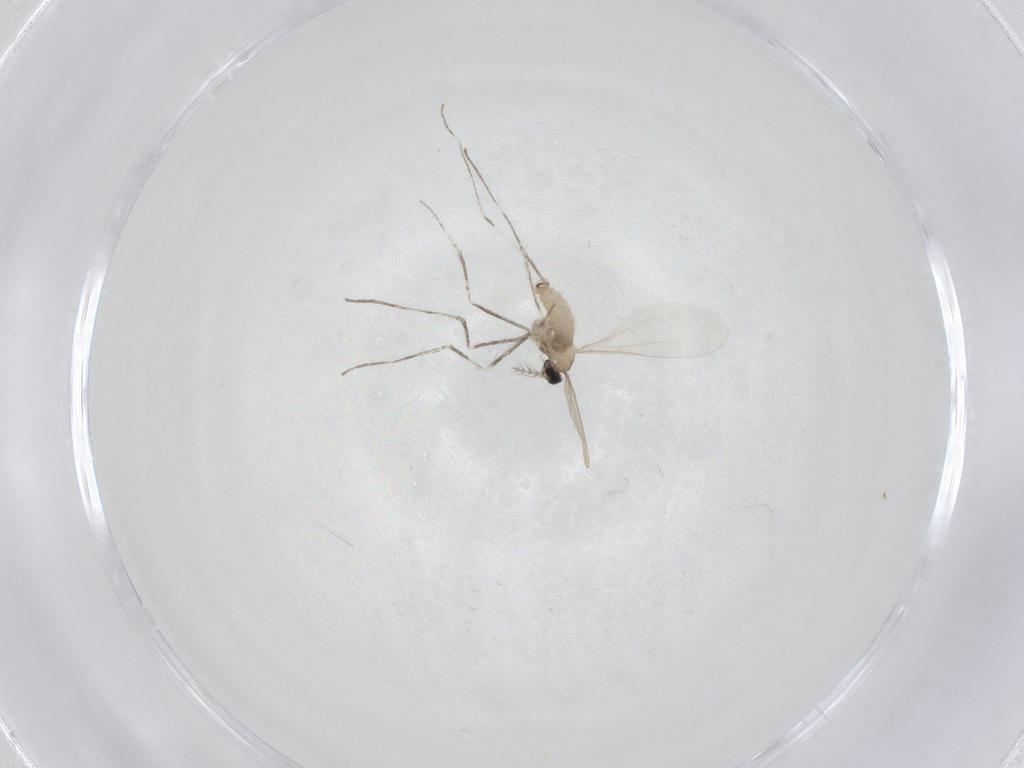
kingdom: Animalia
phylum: Arthropoda
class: Insecta
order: Diptera
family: Cecidomyiidae
